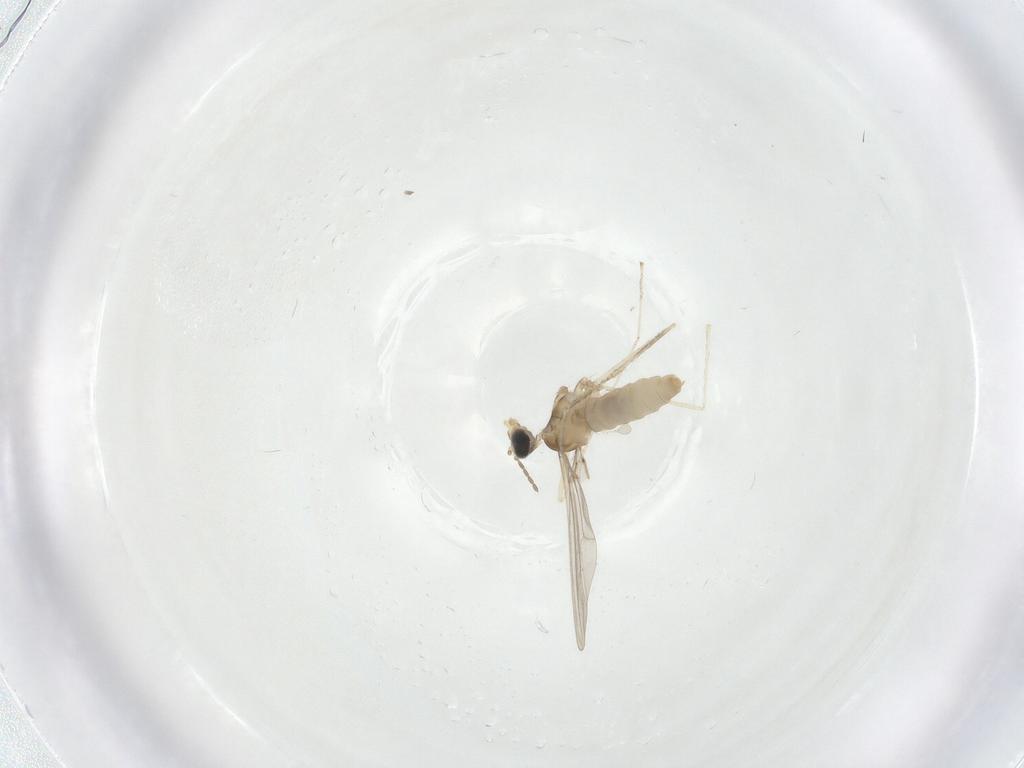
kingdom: Animalia
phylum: Arthropoda
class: Insecta
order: Diptera
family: Cecidomyiidae
